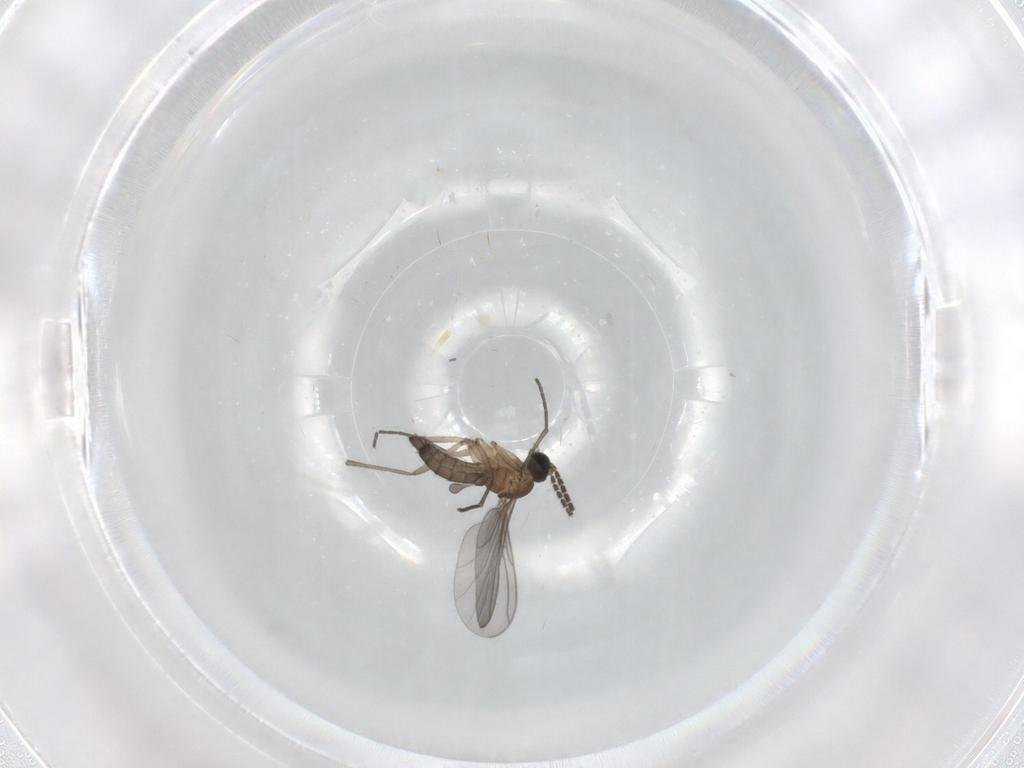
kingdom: Animalia
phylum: Arthropoda
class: Insecta
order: Diptera
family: Sciaridae
